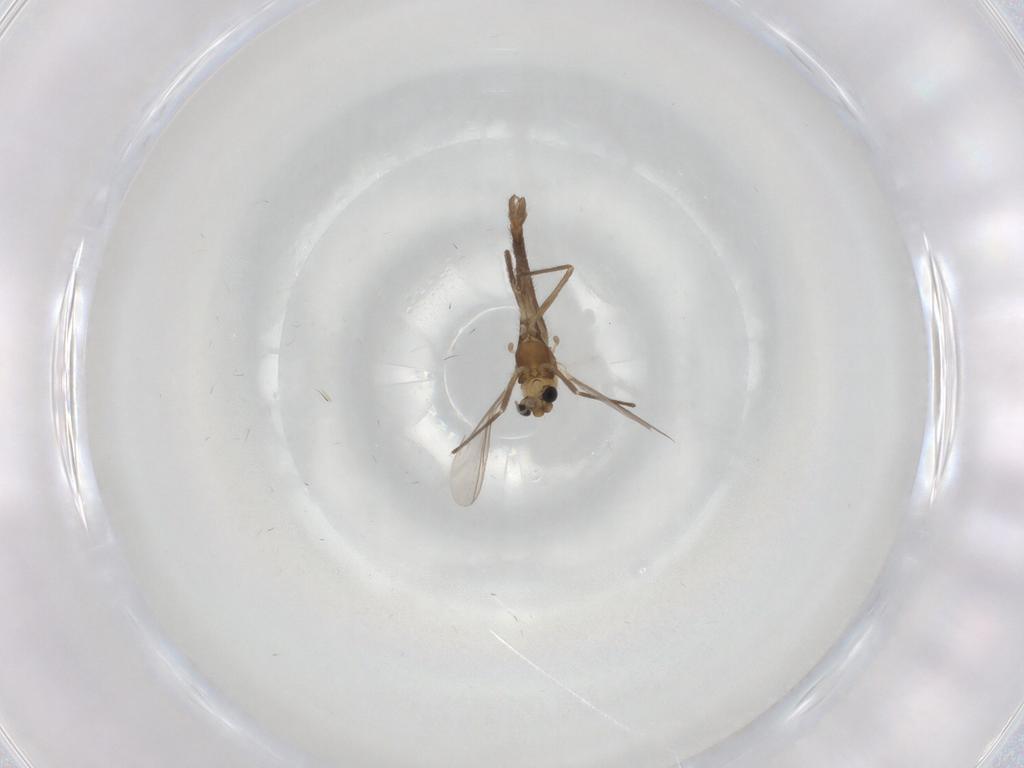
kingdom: Animalia
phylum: Arthropoda
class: Insecta
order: Diptera
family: Chironomidae
